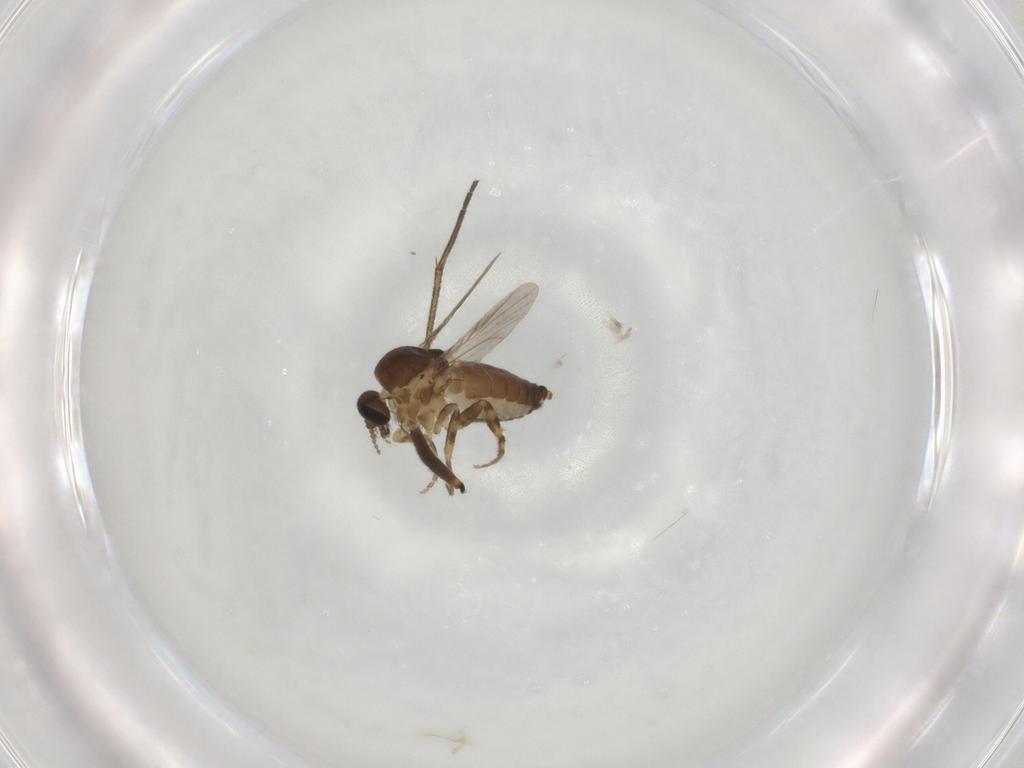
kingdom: Animalia
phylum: Arthropoda
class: Insecta
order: Diptera
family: Ceratopogonidae
